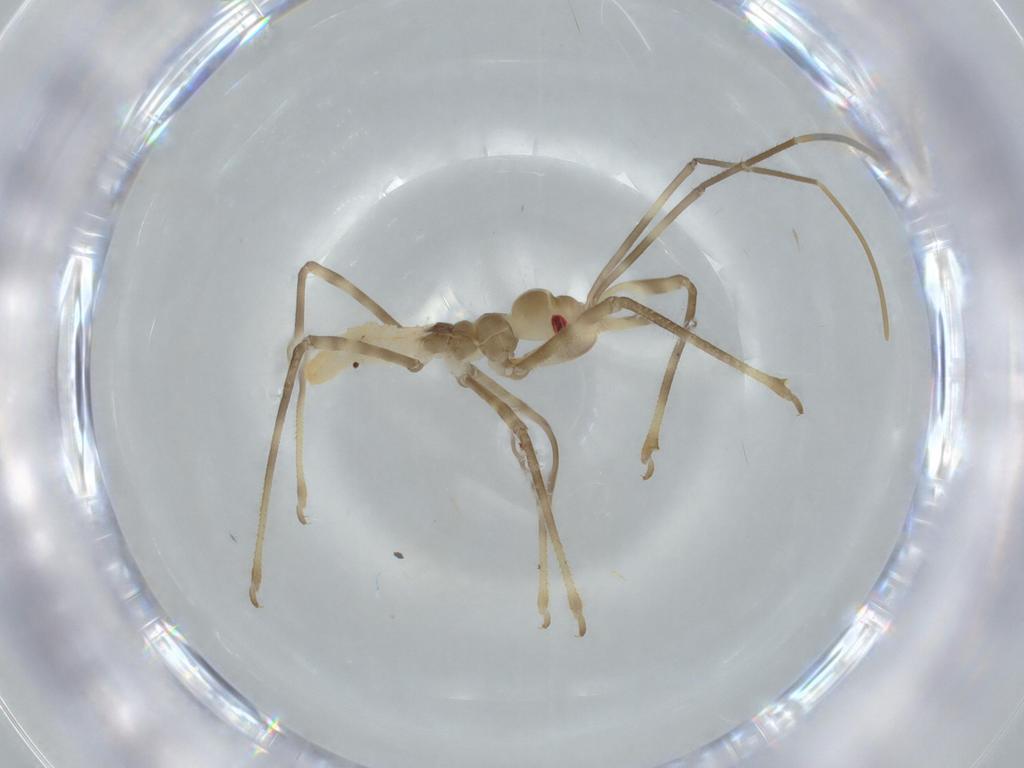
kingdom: Animalia
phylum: Arthropoda
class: Insecta
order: Hemiptera
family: Reduviidae
